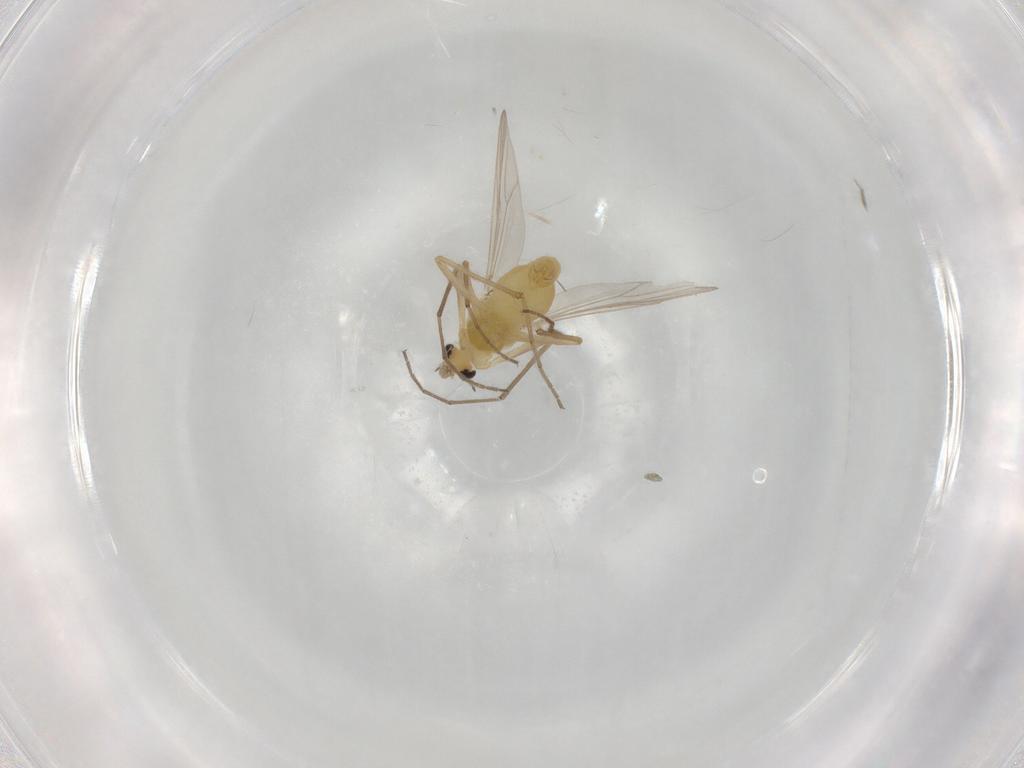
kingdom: Animalia
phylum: Arthropoda
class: Insecta
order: Diptera
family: Chironomidae
